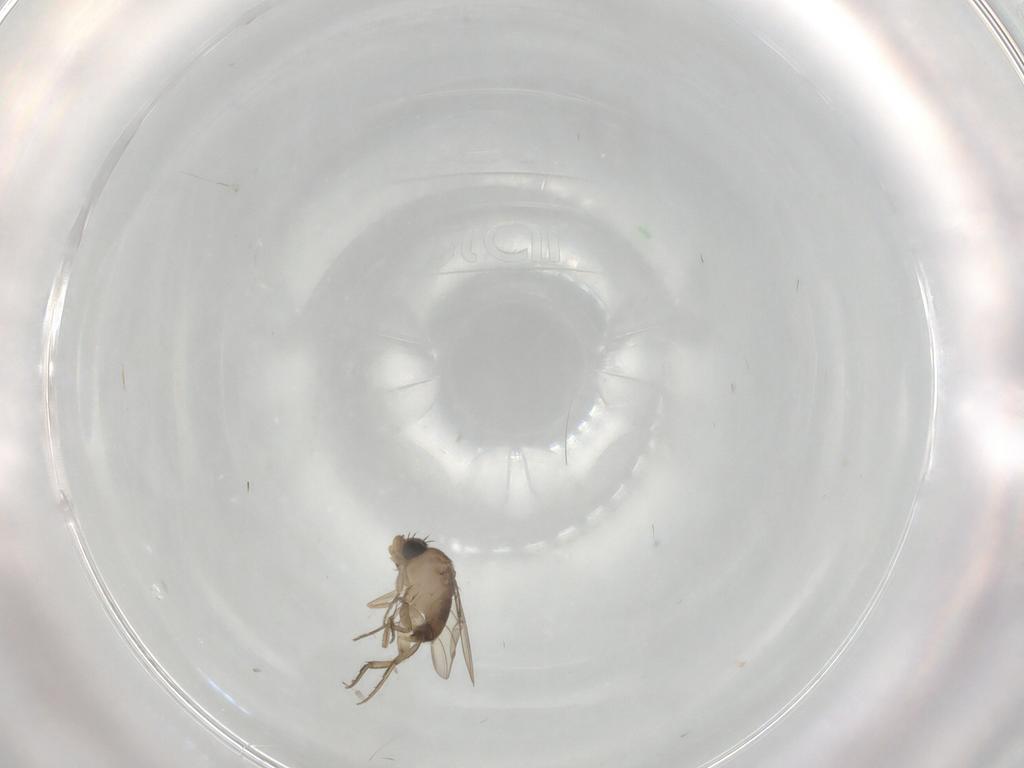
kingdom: Animalia
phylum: Arthropoda
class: Insecta
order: Diptera
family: Phoridae
